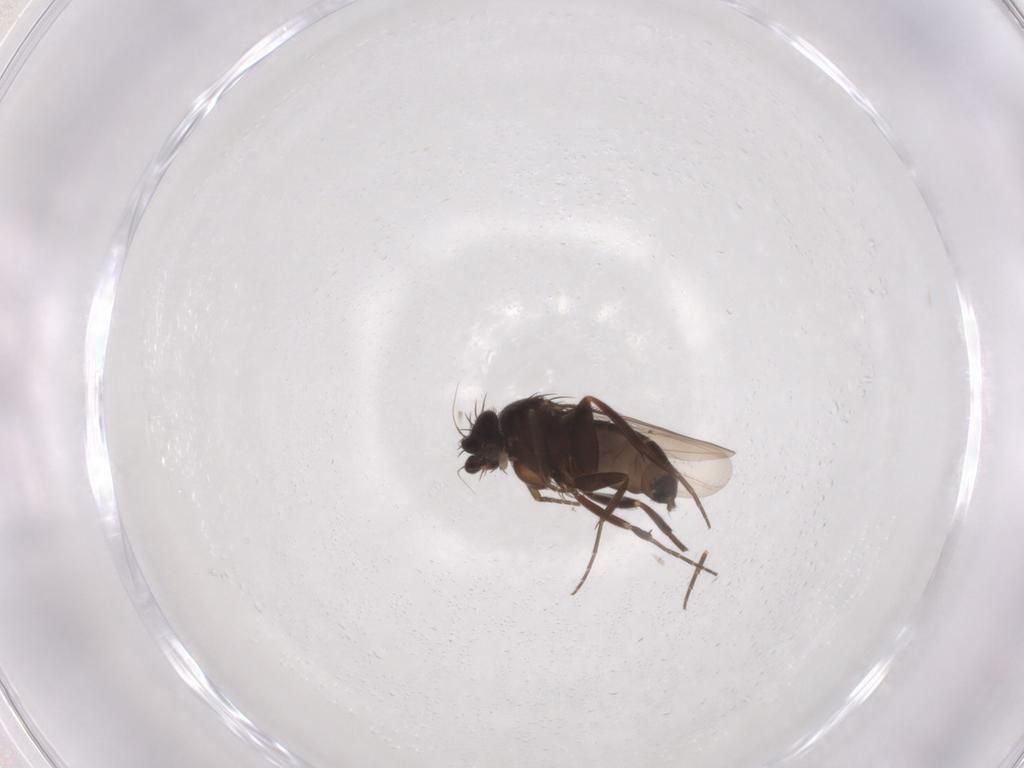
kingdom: Animalia
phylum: Arthropoda
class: Insecta
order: Diptera
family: Phoridae
